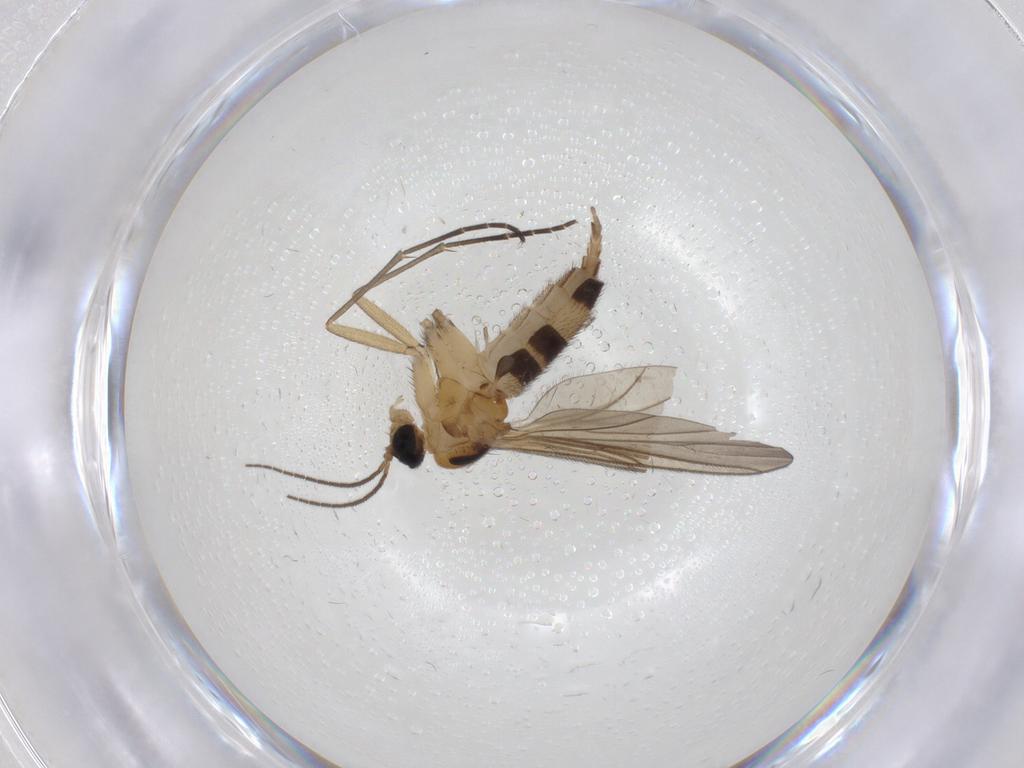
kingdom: Animalia
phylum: Arthropoda
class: Insecta
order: Diptera
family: Dolichopodidae
